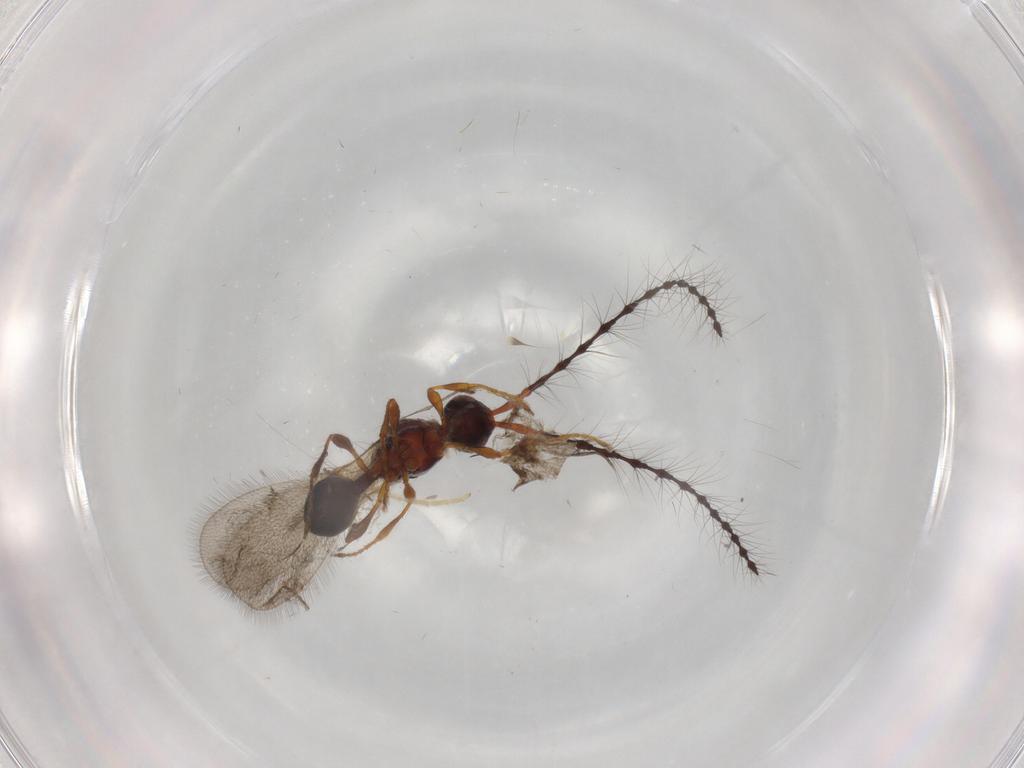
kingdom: Animalia
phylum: Arthropoda
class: Insecta
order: Hymenoptera
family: Diapriidae
